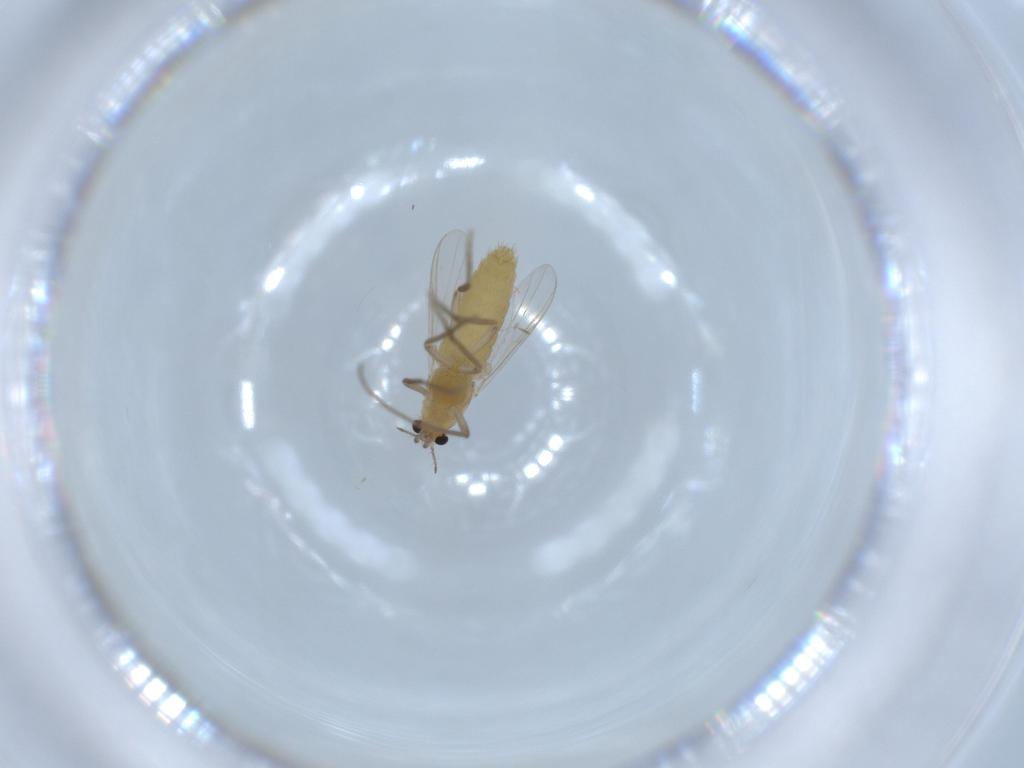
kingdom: Animalia
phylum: Arthropoda
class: Insecta
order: Diptera
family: Chironomidae
